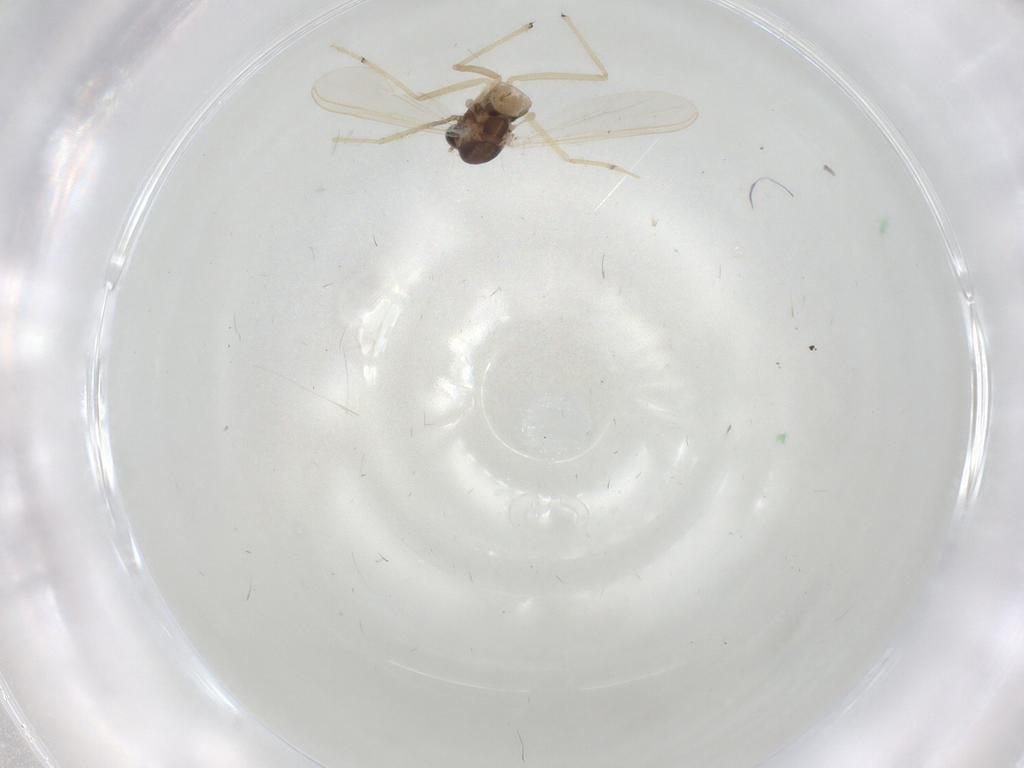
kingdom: Animalia
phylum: Arthropoda
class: Insecta
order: Diptera
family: Chironomidae
